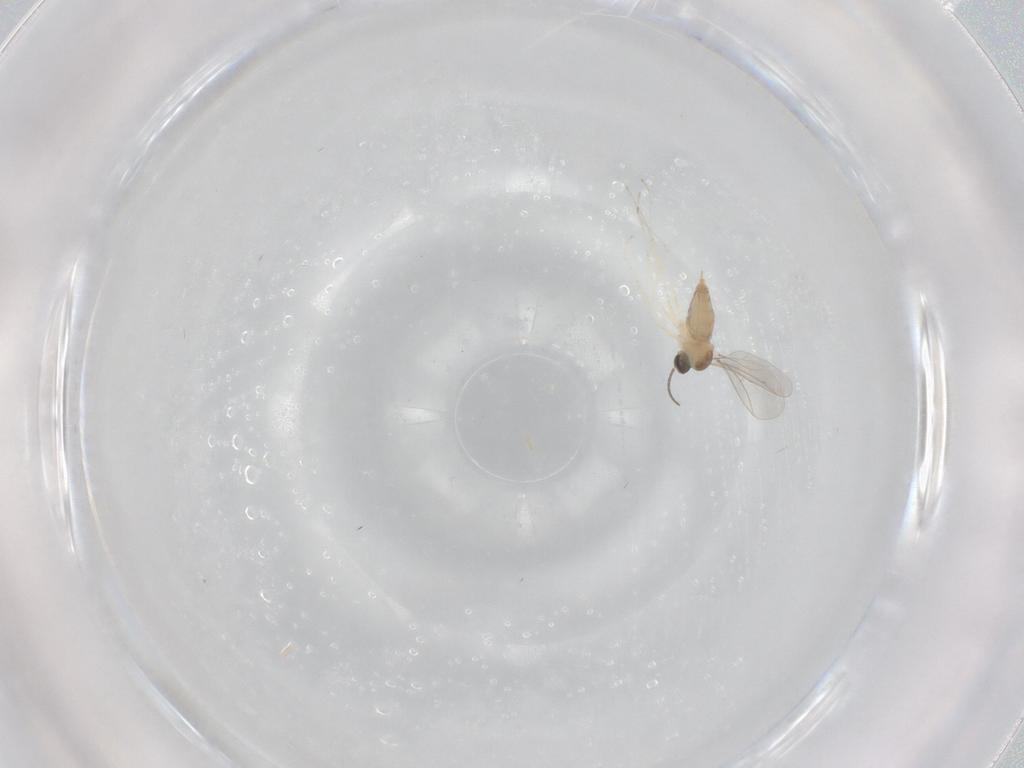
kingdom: Animalia
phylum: Arthropoda
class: Insecta
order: Diptera
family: Cecidomyiidae
